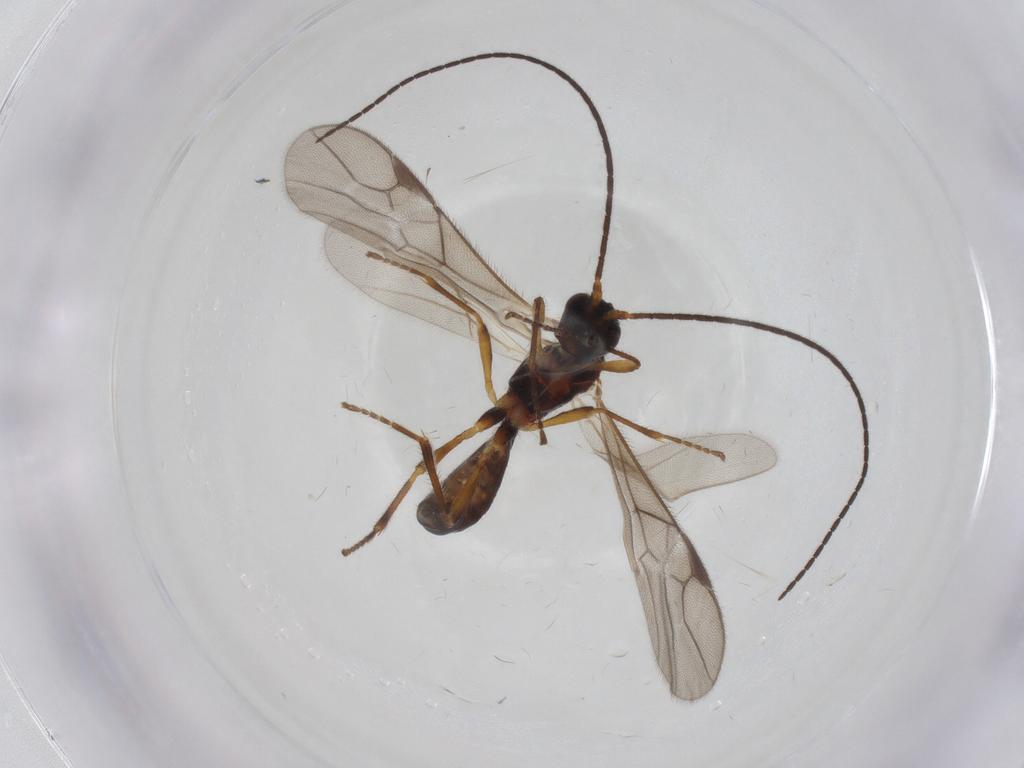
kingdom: Animalia
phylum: Arthropoda
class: Insecta
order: Hymenoptera
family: Braconidae
